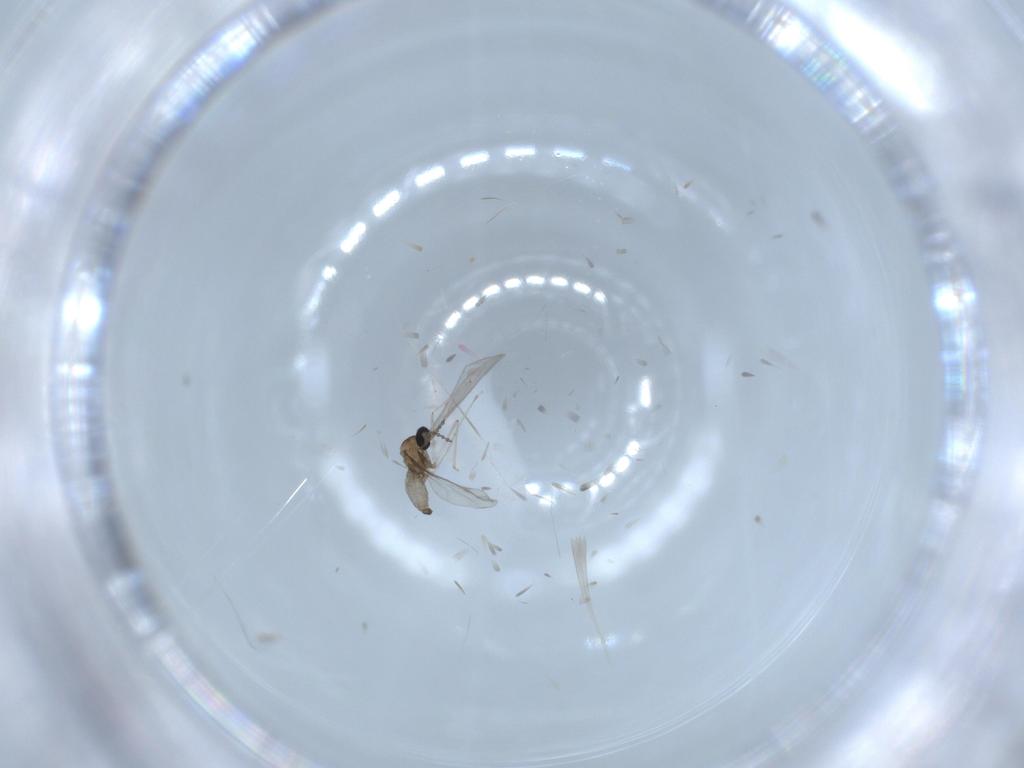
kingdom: Animalia
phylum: Arthropoda
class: Insecta
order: Diptera
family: Cecidomyiidae
